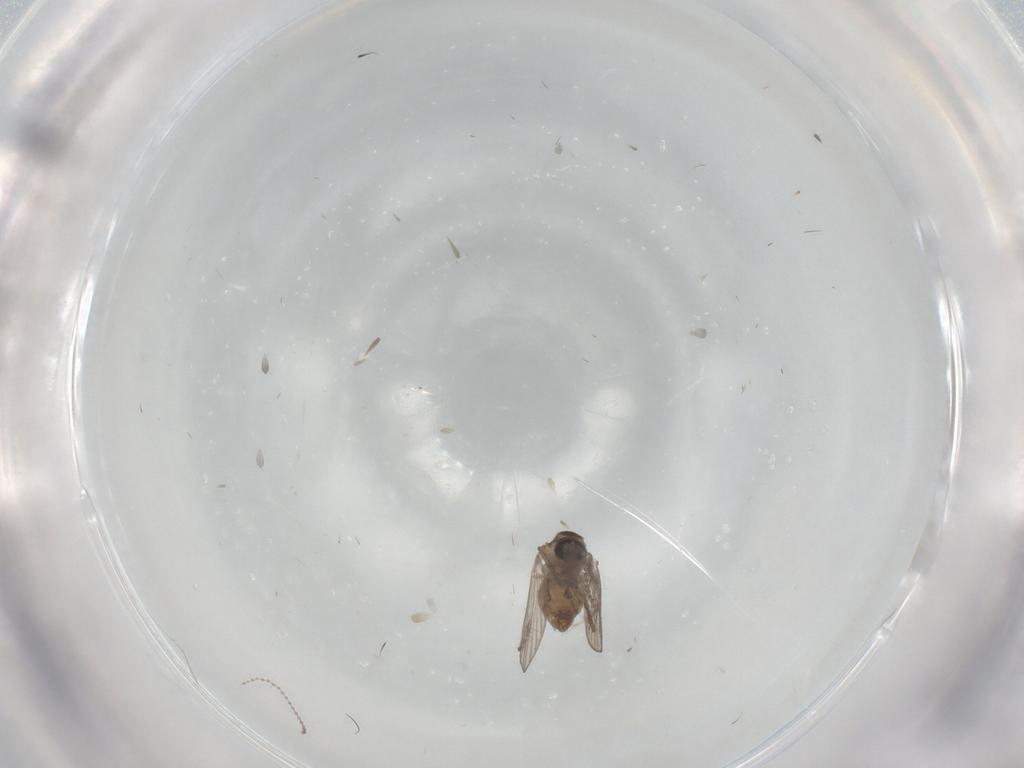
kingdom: Animalia
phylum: Arthropoda
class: Insecta
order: Diptera
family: Psychodidae
